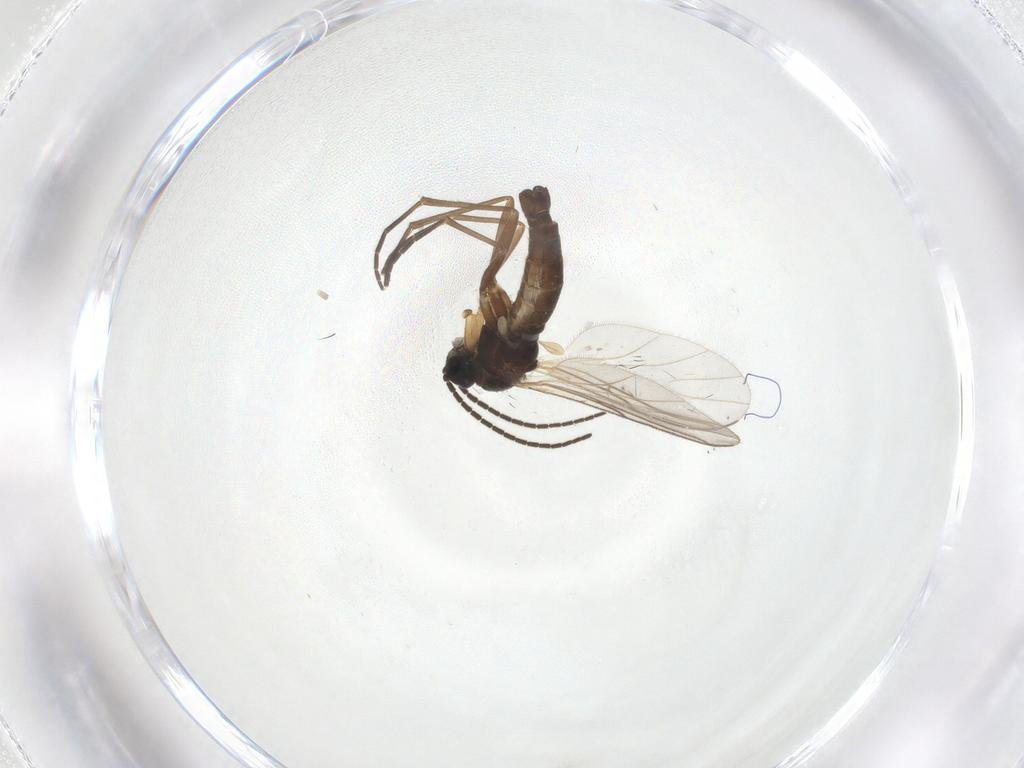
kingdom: Animalia
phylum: Arthropoda
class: Insecta
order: Diptera
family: Sciaridae
